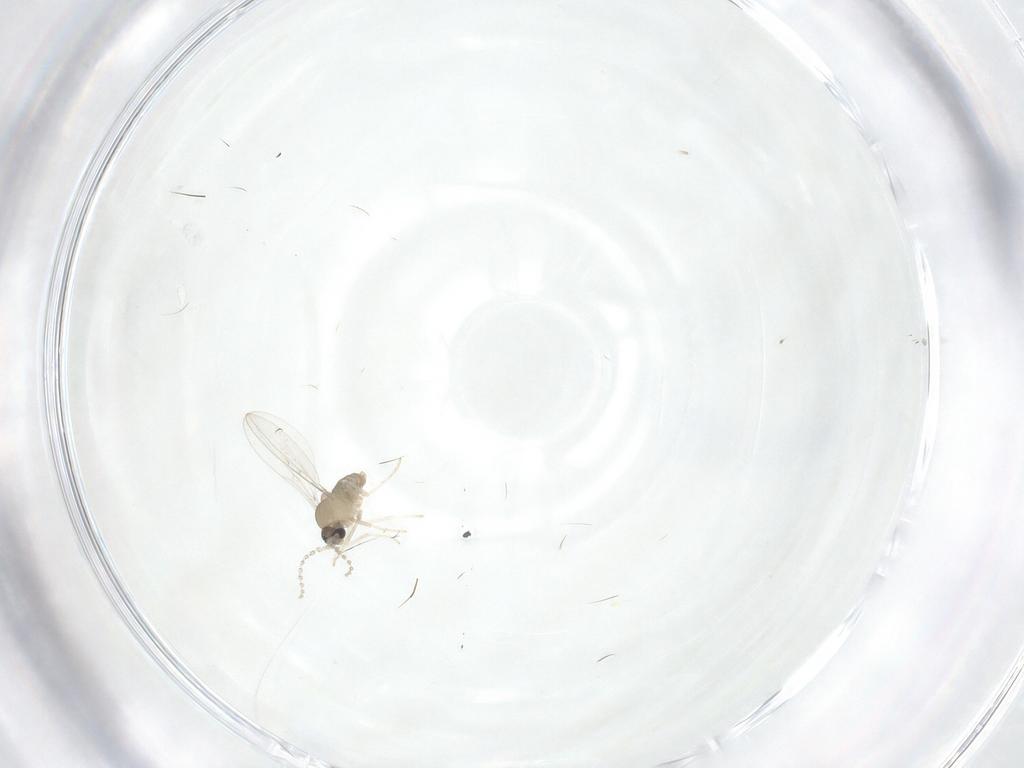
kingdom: Animalia
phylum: Arthropoda
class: Insecta
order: Diptera
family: Cecidomyiidae
